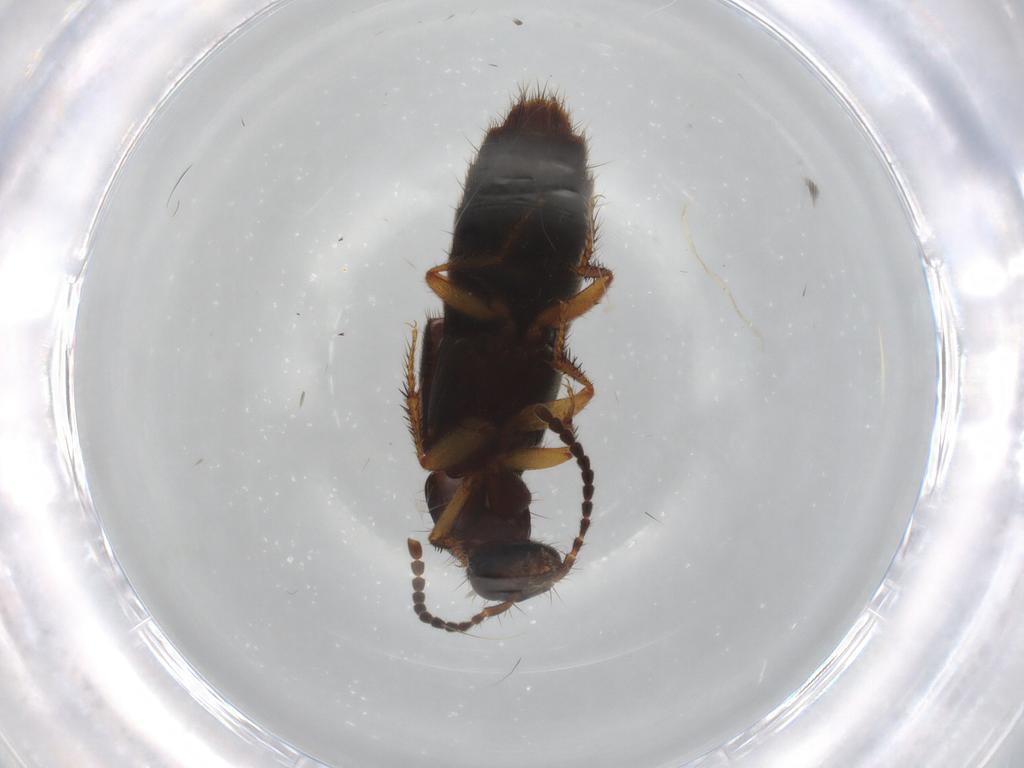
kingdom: Animalia
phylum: Arthropoda
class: Insecta
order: Coleoptera
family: Staphylinidae
